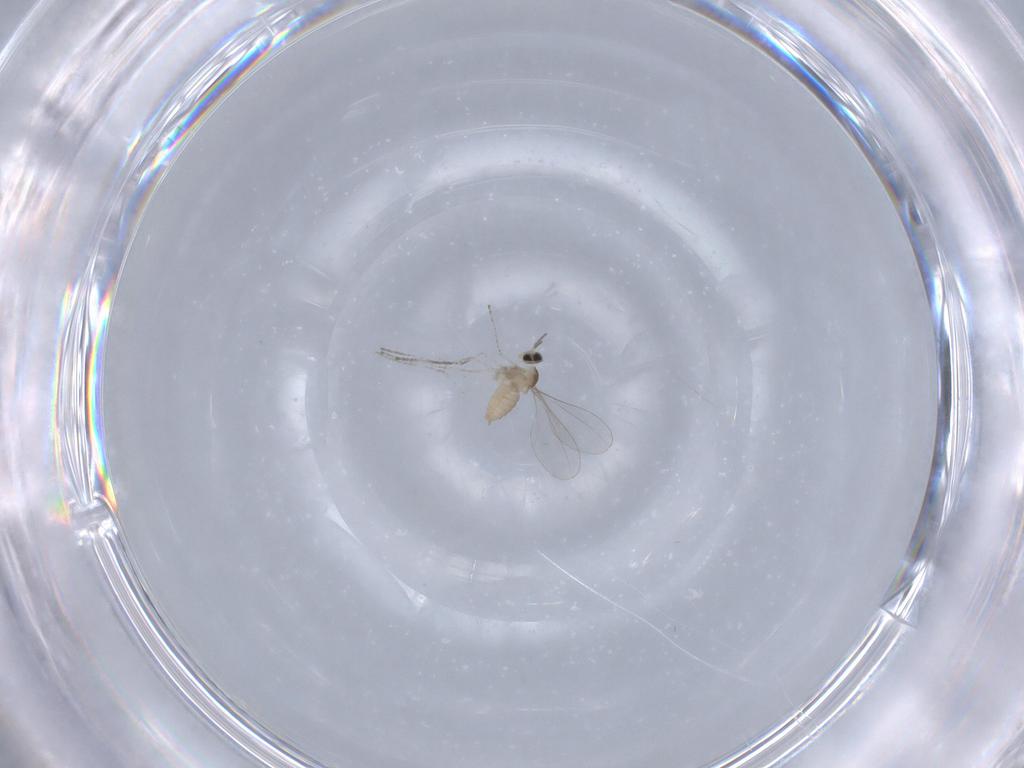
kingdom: Animalia
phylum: Arthropoda
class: Insecta
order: Diptera
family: Cecidomyiidae
